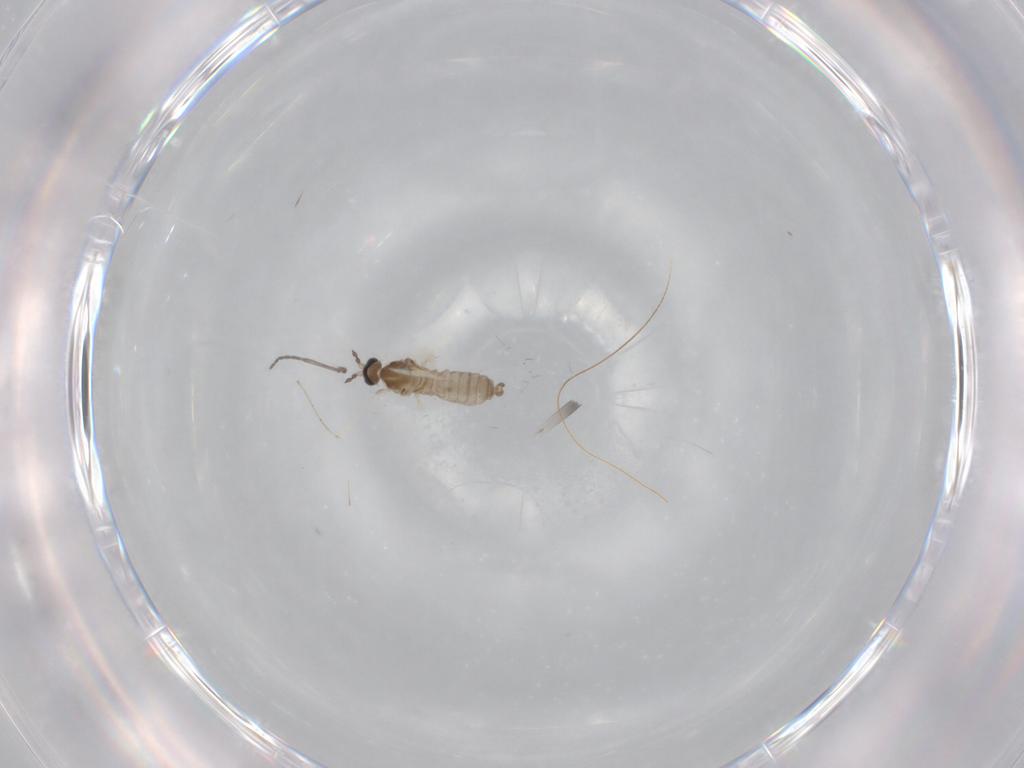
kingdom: Animalia
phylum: Arthropoda
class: Insecta
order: Diptera
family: Cecidomyiidae
